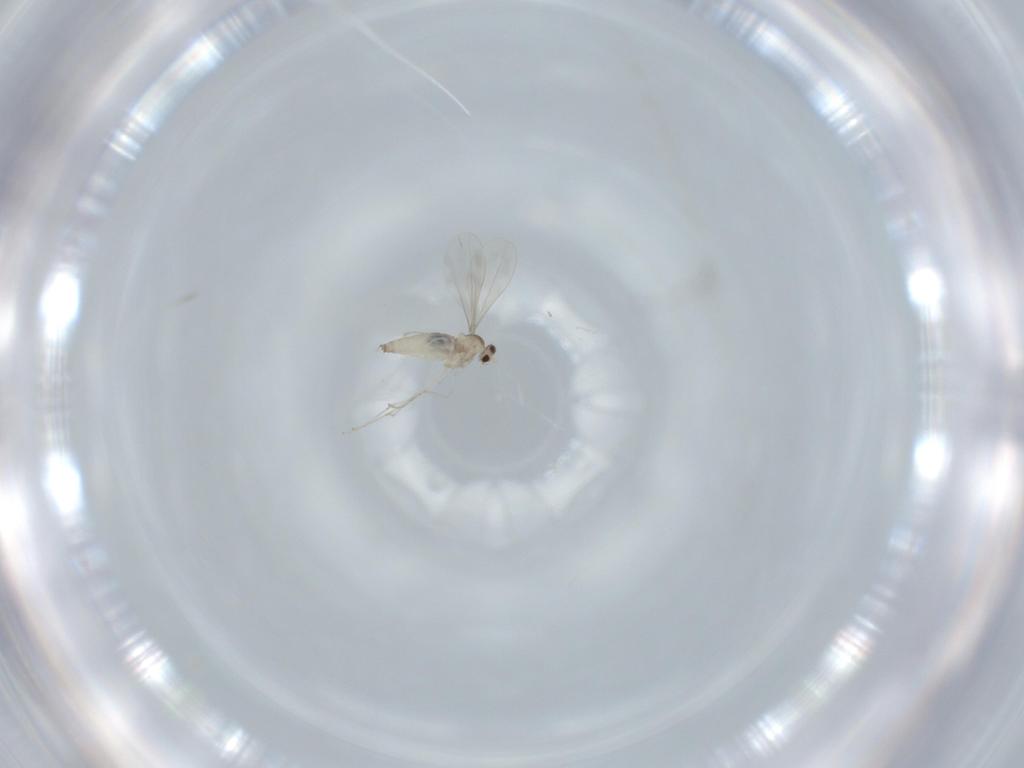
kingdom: Animalia
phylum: Arthropoda
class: Insecta
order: Diptera
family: Cecidomyiidae
